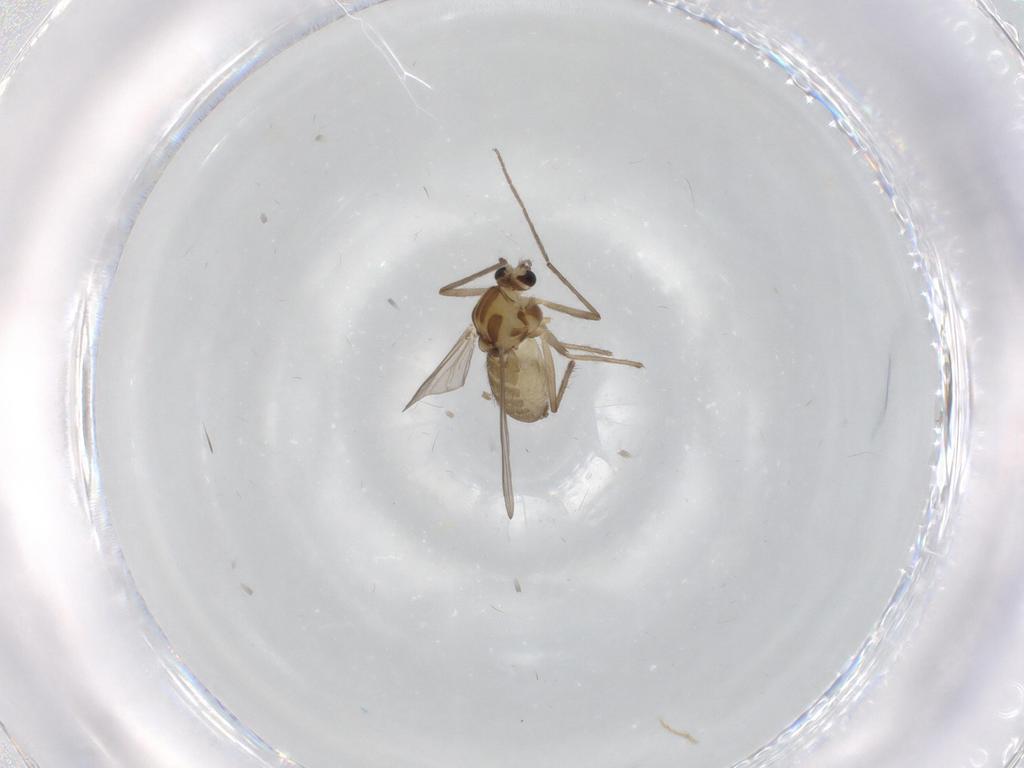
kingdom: Animalia
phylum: Arthropoda
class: Insecta
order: Diptera
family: Chironomidae
